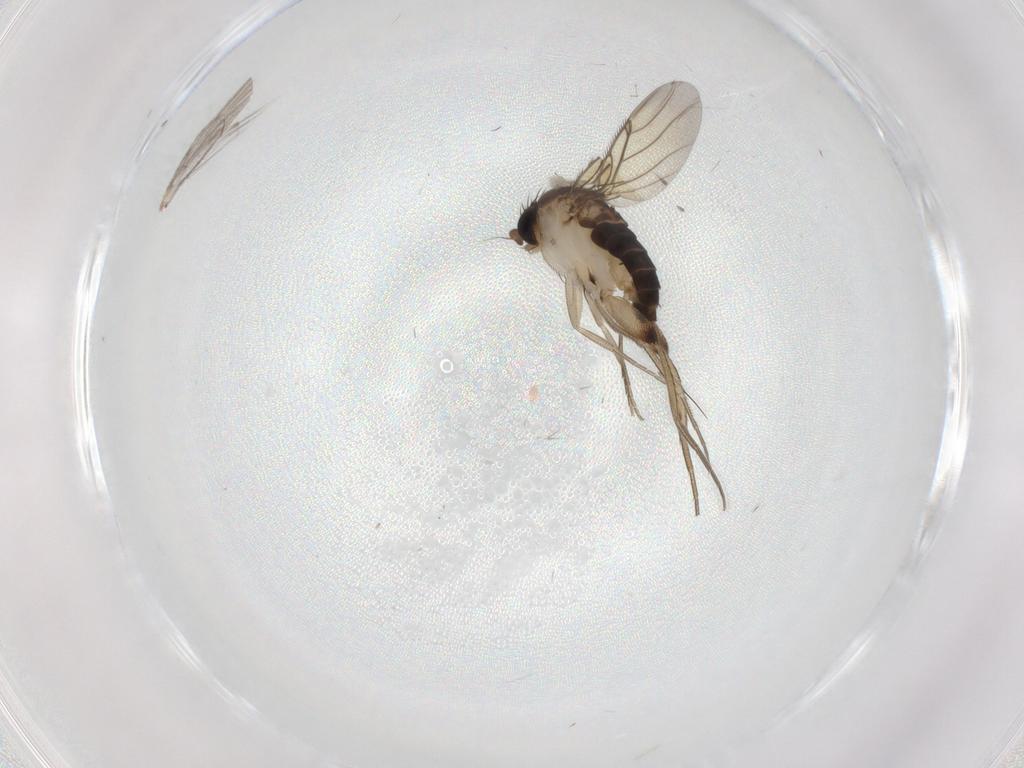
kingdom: Animalia
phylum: Arthropoda
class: Insecta
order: Diptera
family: Phoridae
